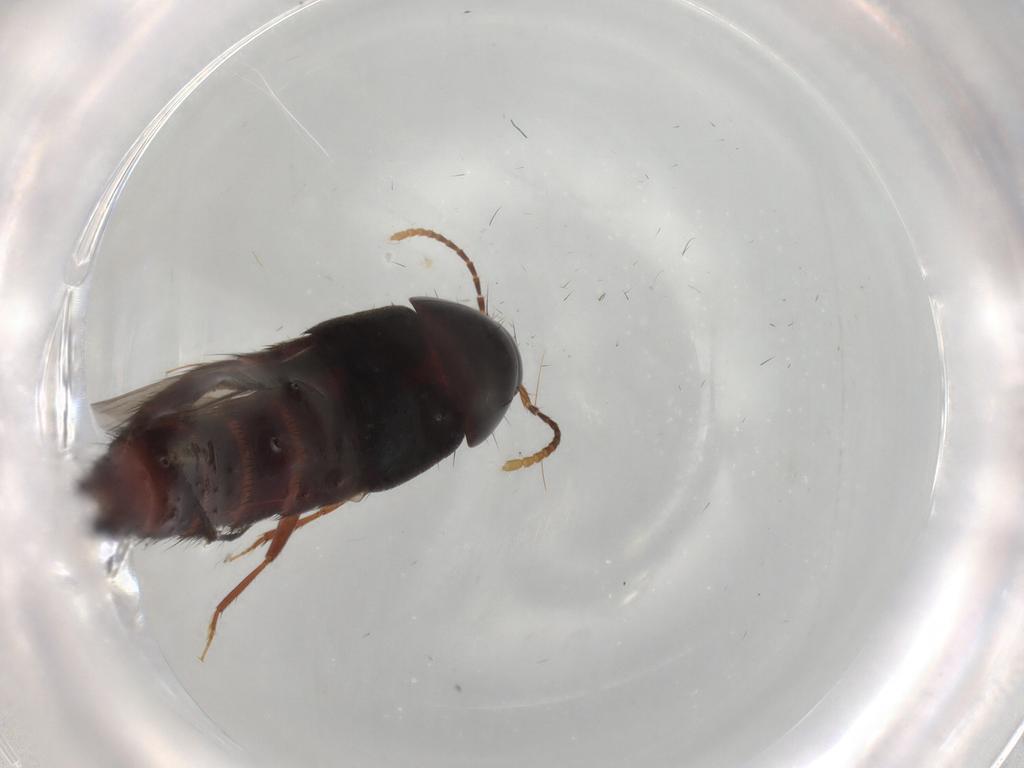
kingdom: Animalia
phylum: Arthropoda
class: Insecta
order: Coleoptera
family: Staphylinidae
